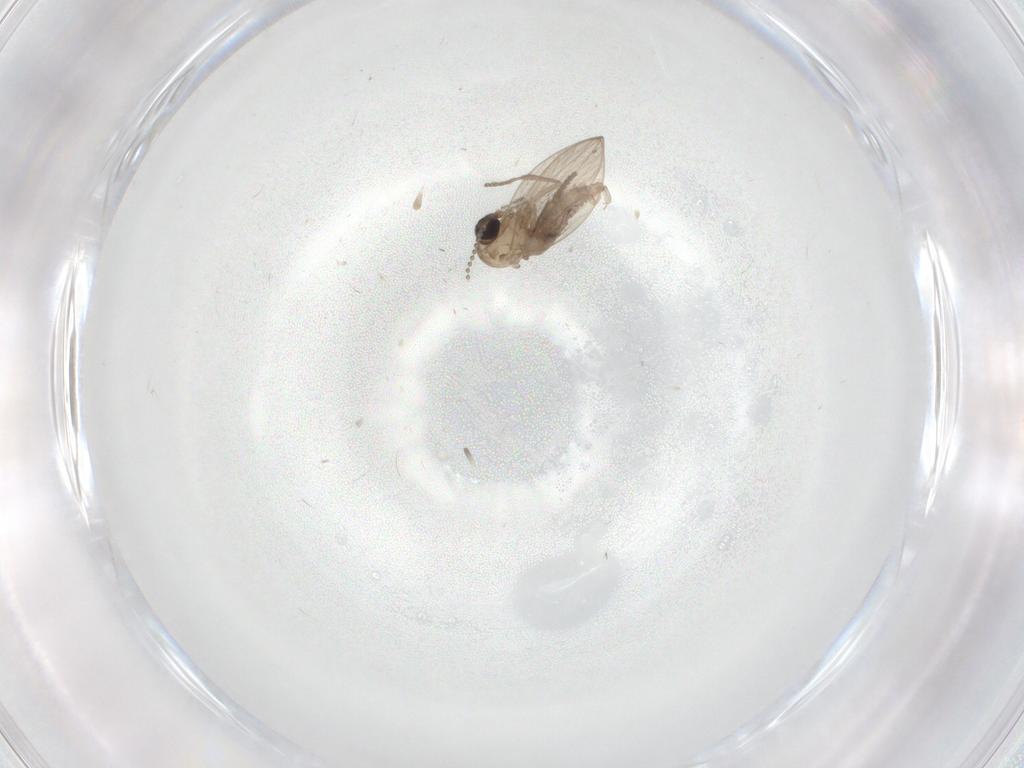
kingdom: Animalia
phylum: Arthropoda
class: Insecta
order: Diptera
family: Psychodidae
